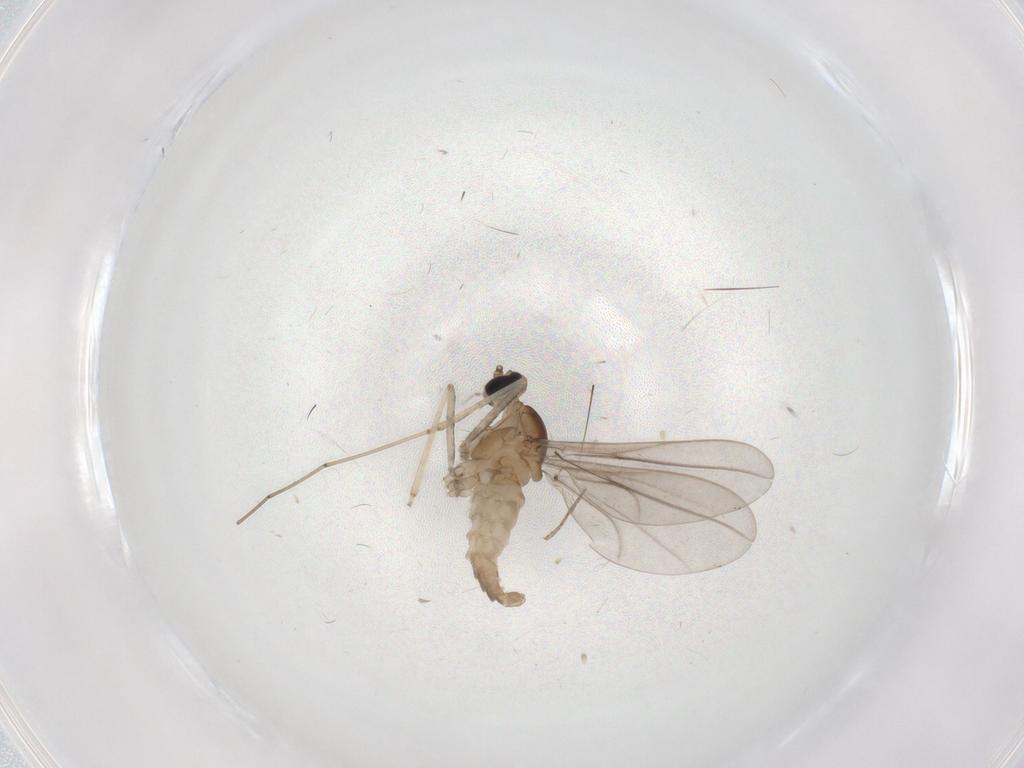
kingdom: Animalia
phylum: Arthropoda
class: Insecta
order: Diptera
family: Cecidomyiidae
